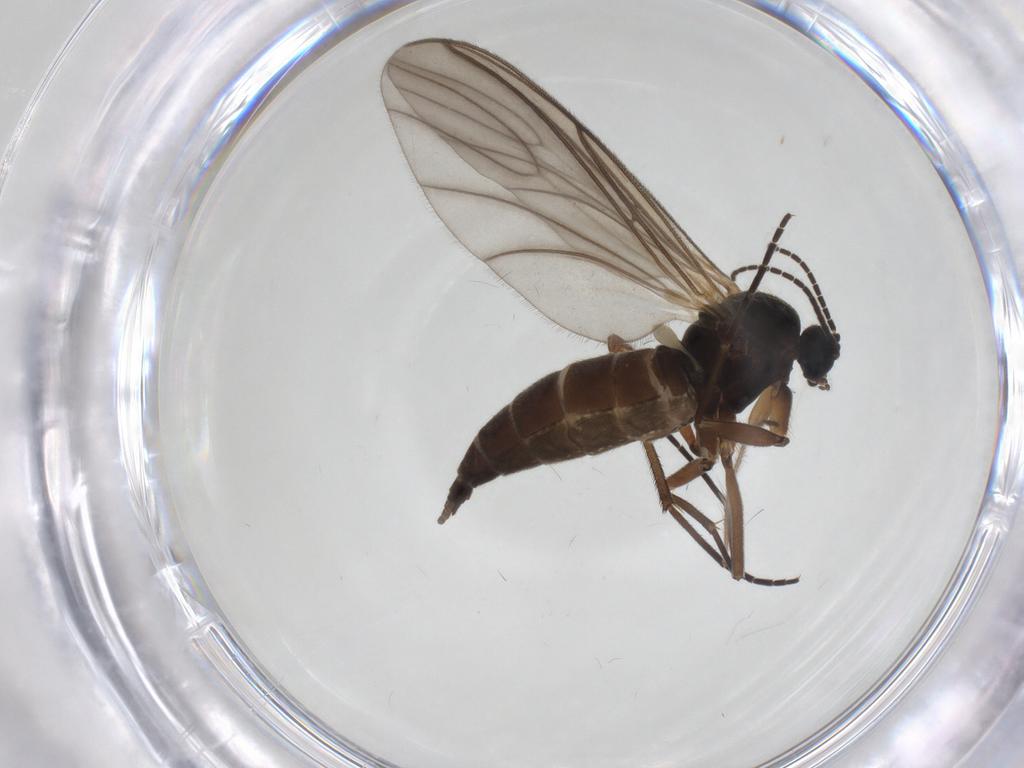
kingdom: Animalia
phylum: Arthropoda
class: Insecta
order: Diptera
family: Sciaridae
